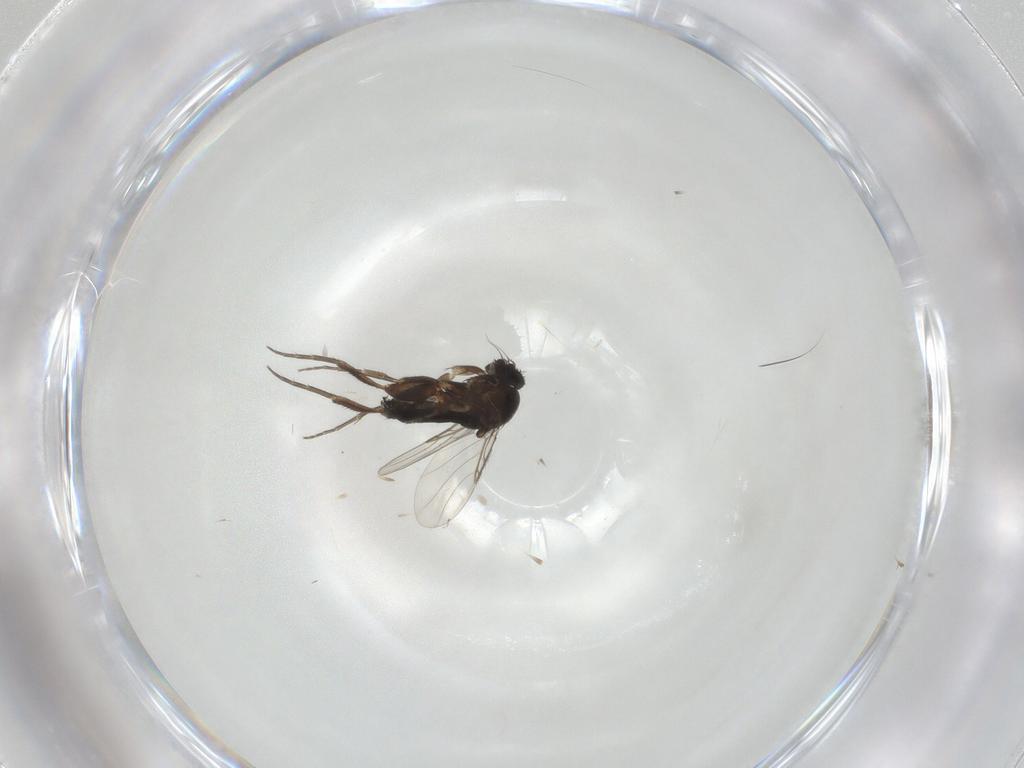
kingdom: Animalia
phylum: Arthropoda
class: Insecta
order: Diptera
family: Phoridae
